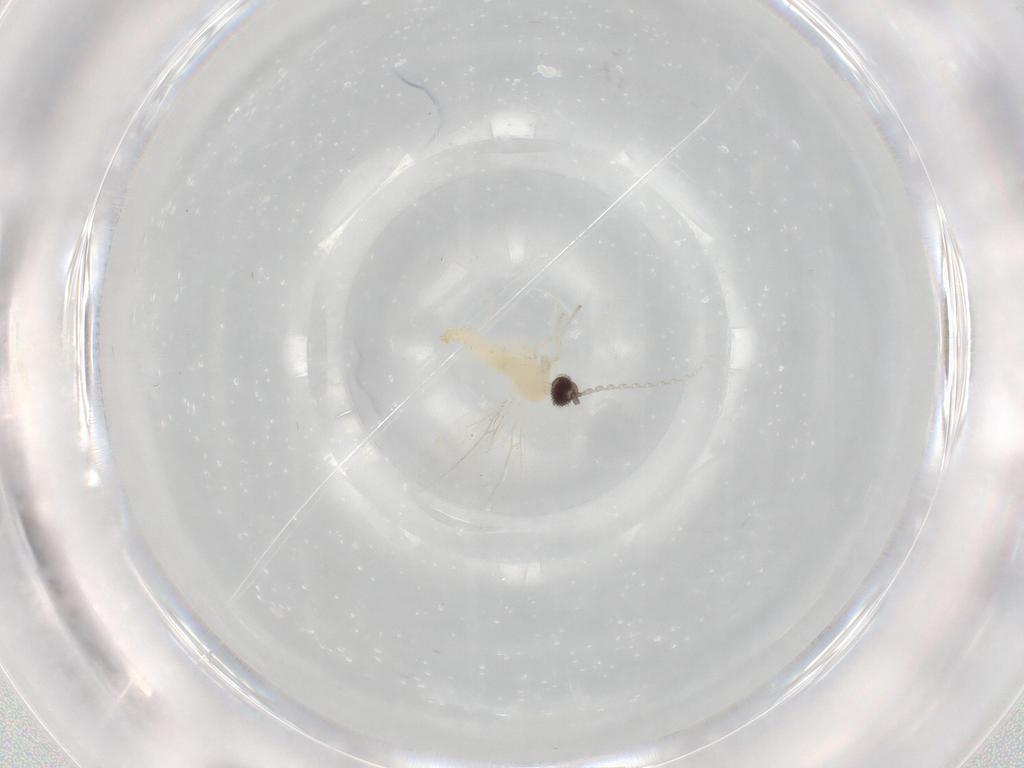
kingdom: Animalia
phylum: Arthropoda
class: Insecta
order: Diptera
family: Cecidomyiidae
